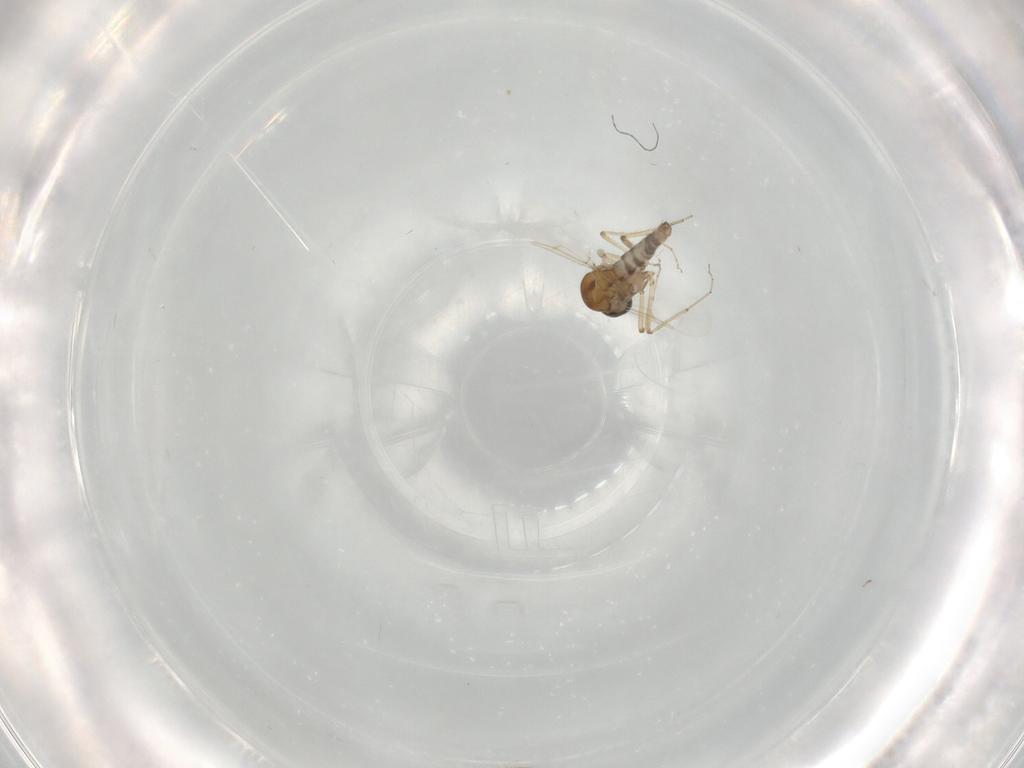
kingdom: Animalia
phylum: Arthropoda
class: Insecta
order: Diptera
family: Ceratopogonidae
